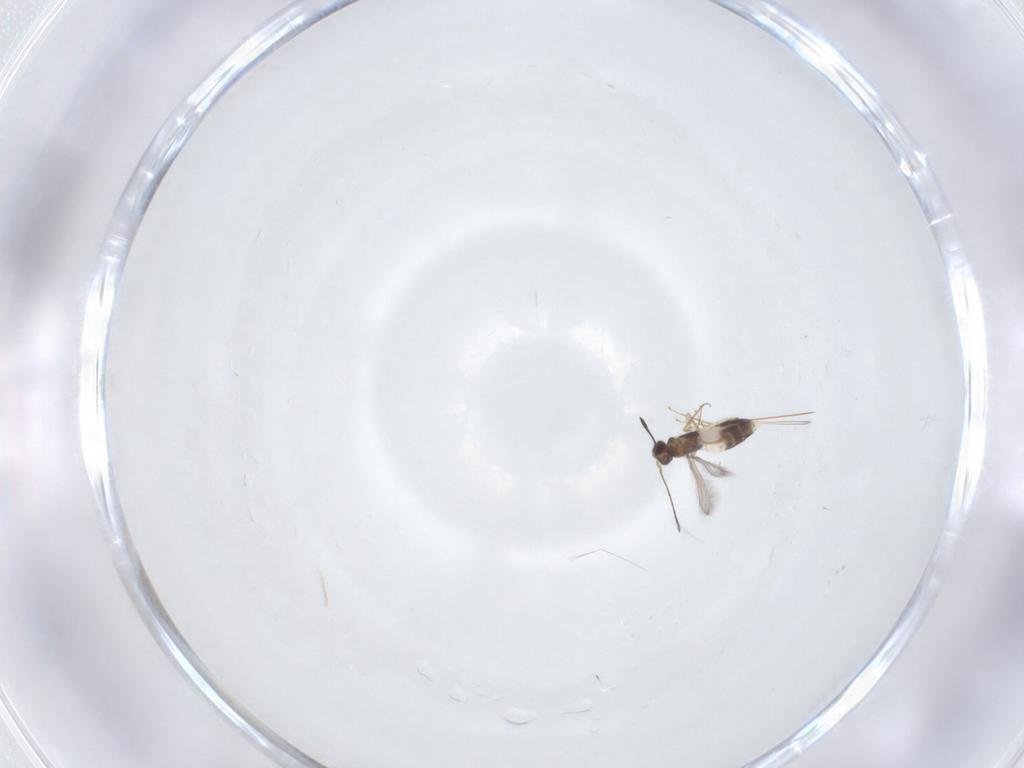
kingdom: Animalia
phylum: Arthropoda
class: Insecta
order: Hymenoptera
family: Mymaridae
